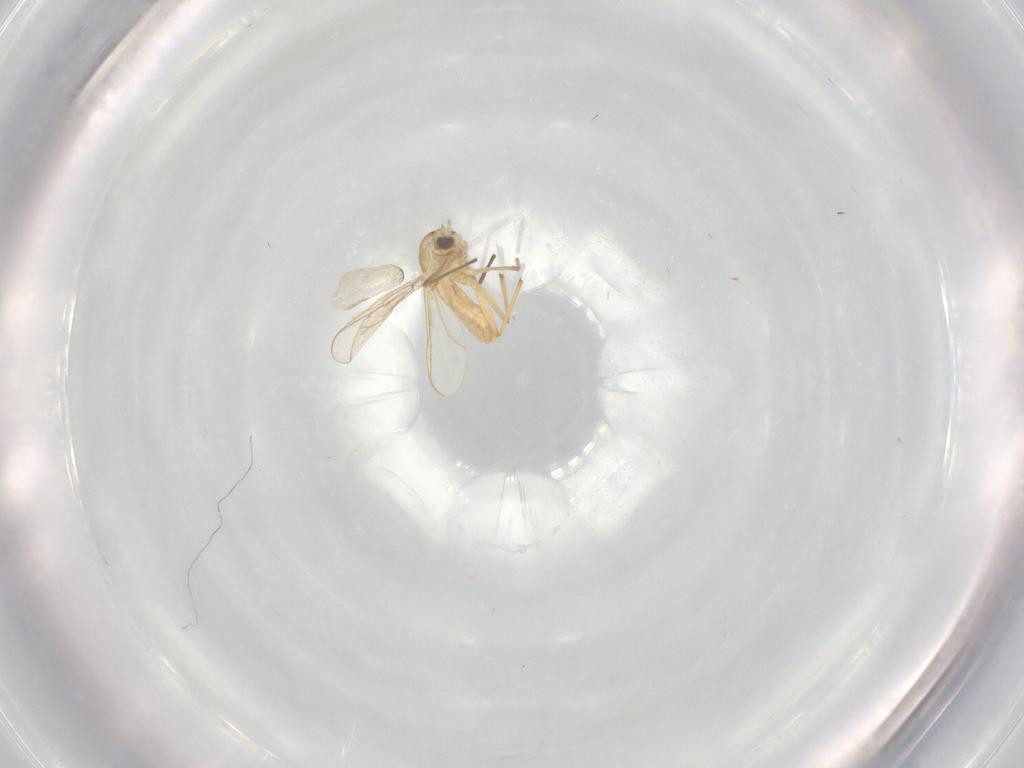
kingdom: Animalia
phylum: Arthropoda
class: Insecta
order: Diptera
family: Chironomidae
